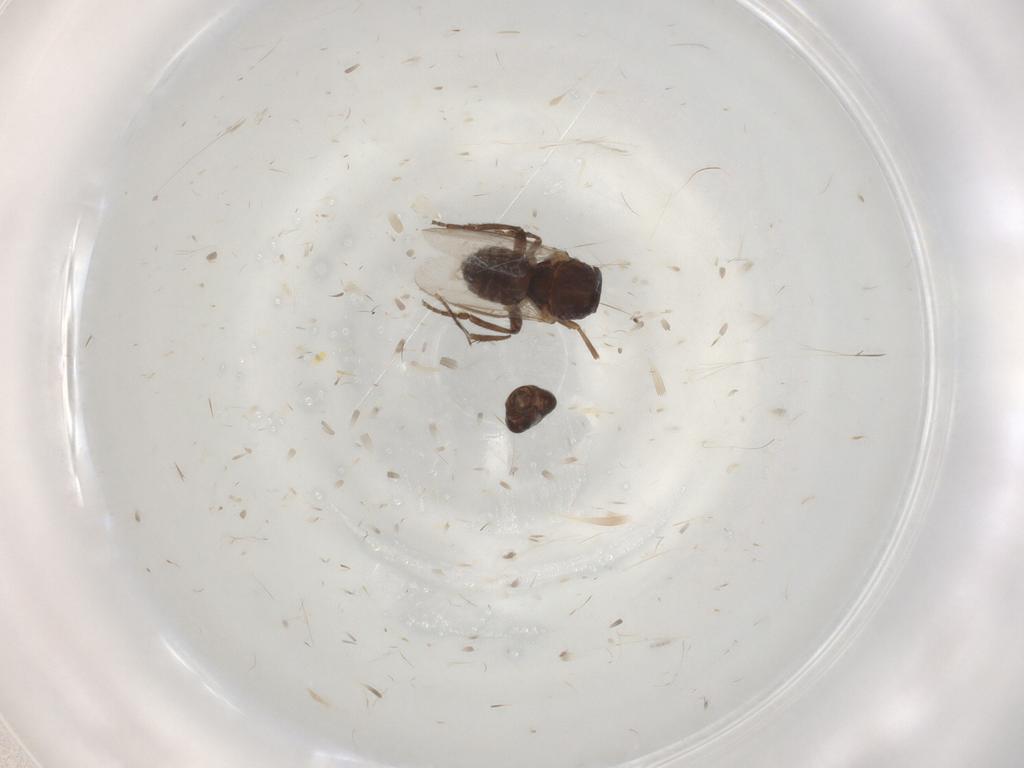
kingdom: Animalia
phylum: Arthropoda
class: Insecta
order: Diptera
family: Sphaeroceridae
